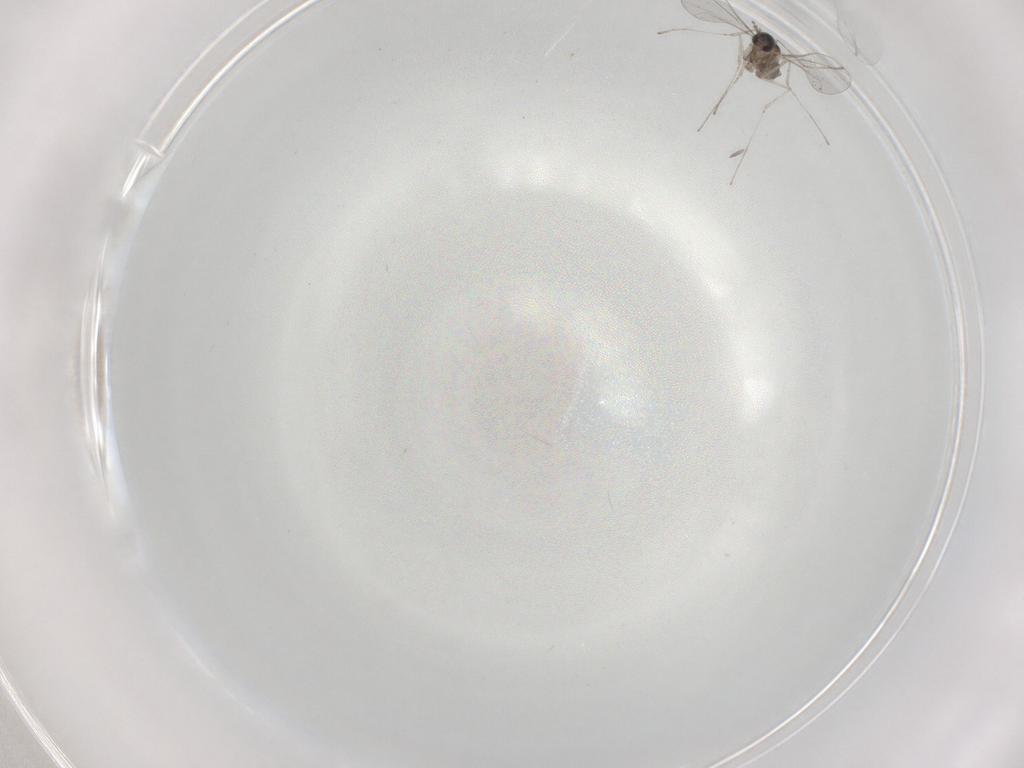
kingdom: Animalia
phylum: Arthropoda
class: Insecta
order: Diptera
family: Cecidomyiidae
